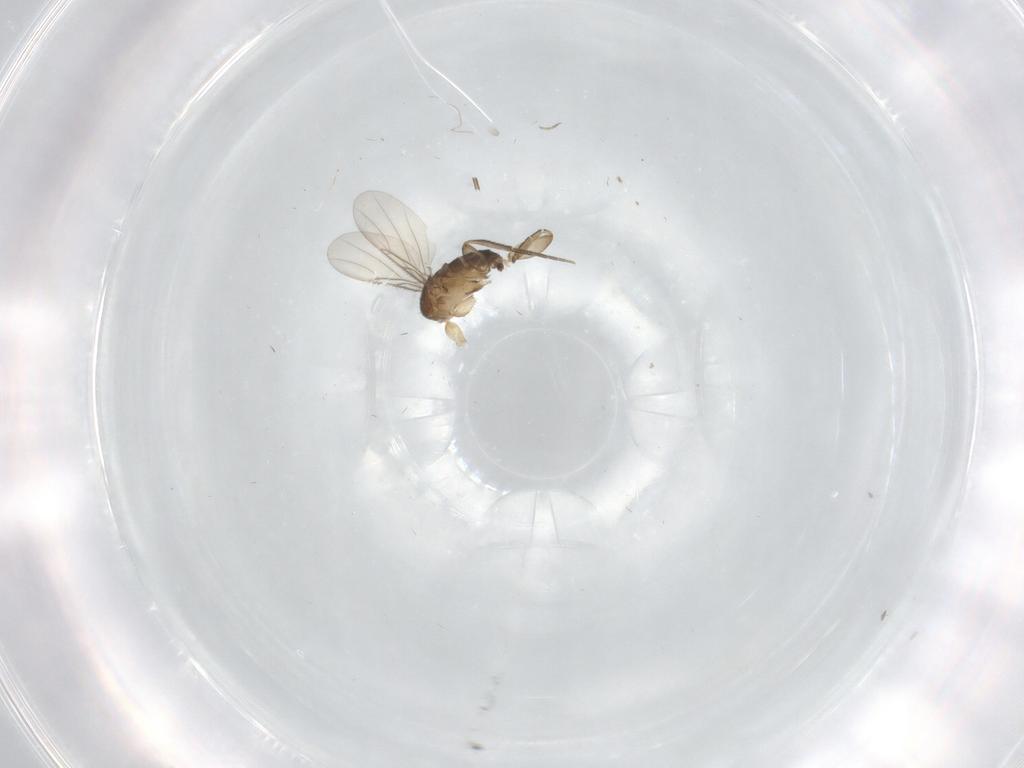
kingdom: Animalia
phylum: Arthropoda
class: Insecta
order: Diptera
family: Phoridae
